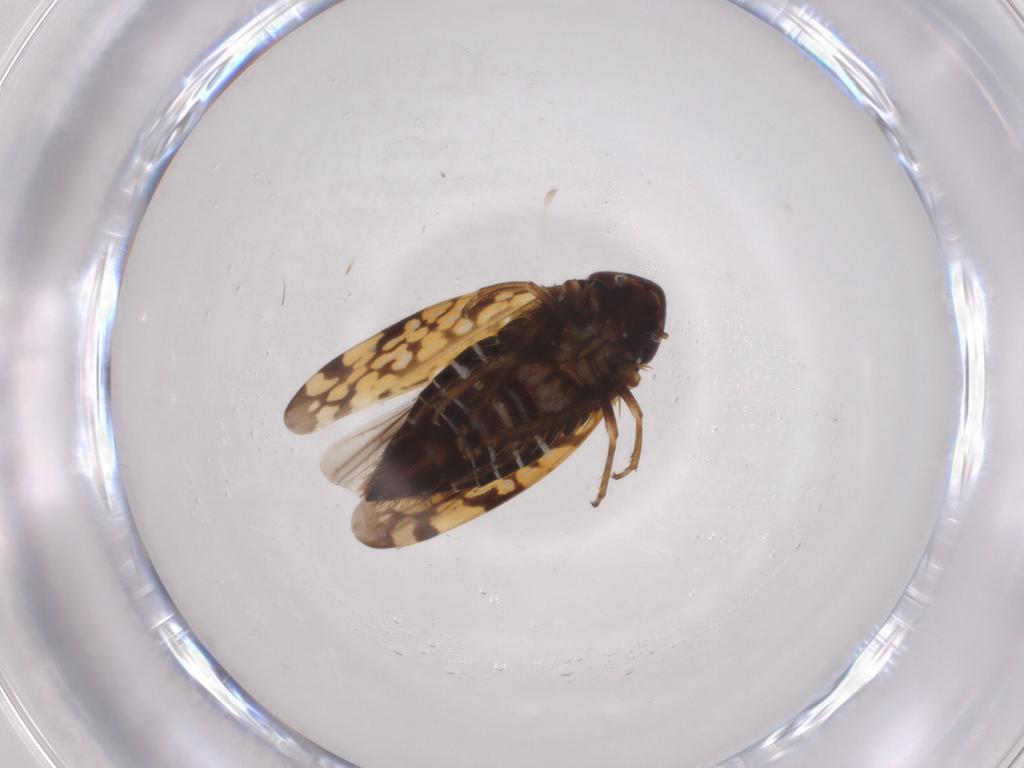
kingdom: Animalia
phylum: Arthropoda
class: Insecta
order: Hemiptera
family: Cicadellidae
